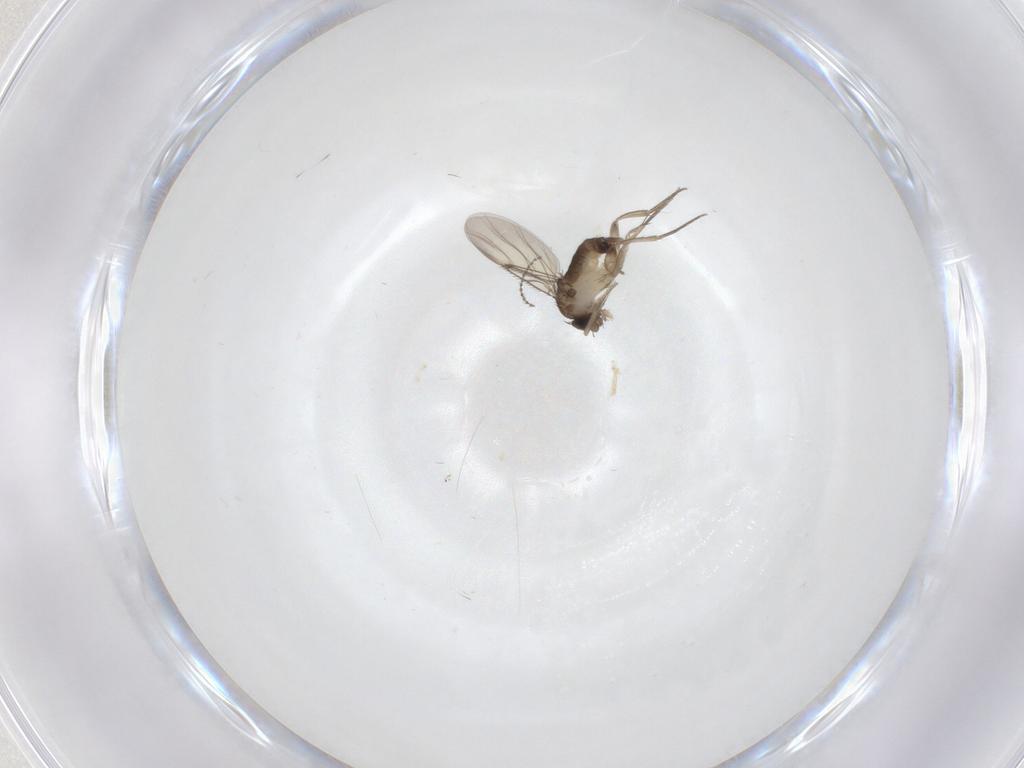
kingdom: Animalia
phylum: Arthropoda
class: Insecta
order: Diptera
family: Phoridae
